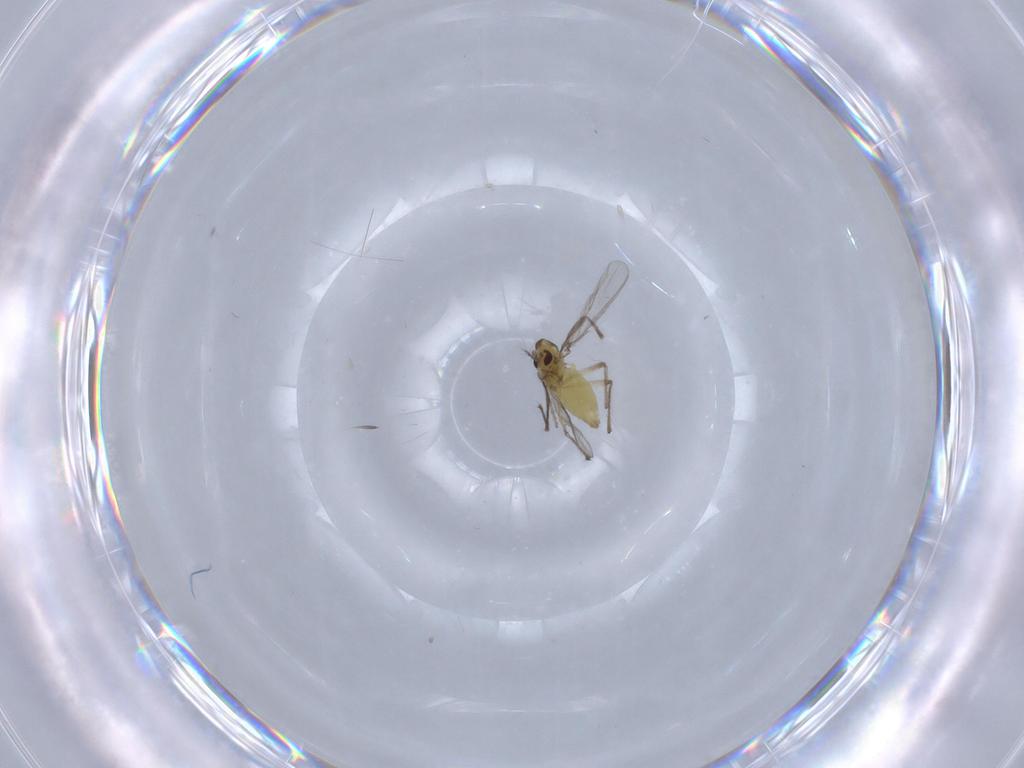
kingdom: Animalia
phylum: Arthropoda
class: Insecta
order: Diptera
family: Chironomidae
